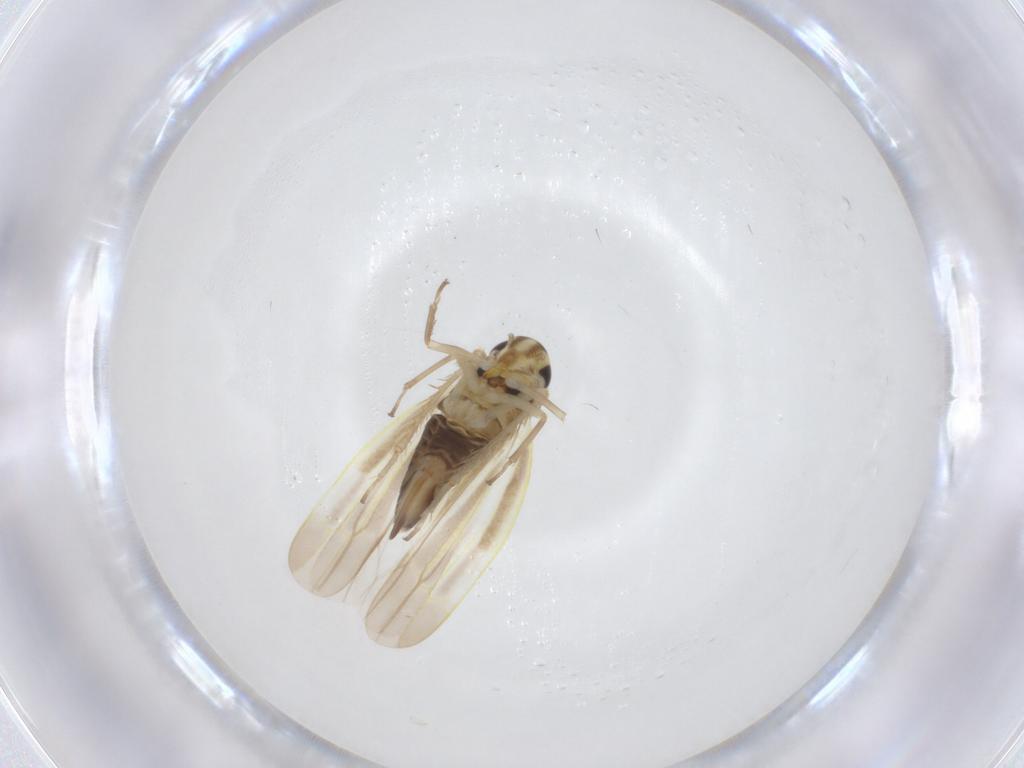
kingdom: Animalia
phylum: Arthropoda
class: Insecta
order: Hemiptera
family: Cicadellidae
